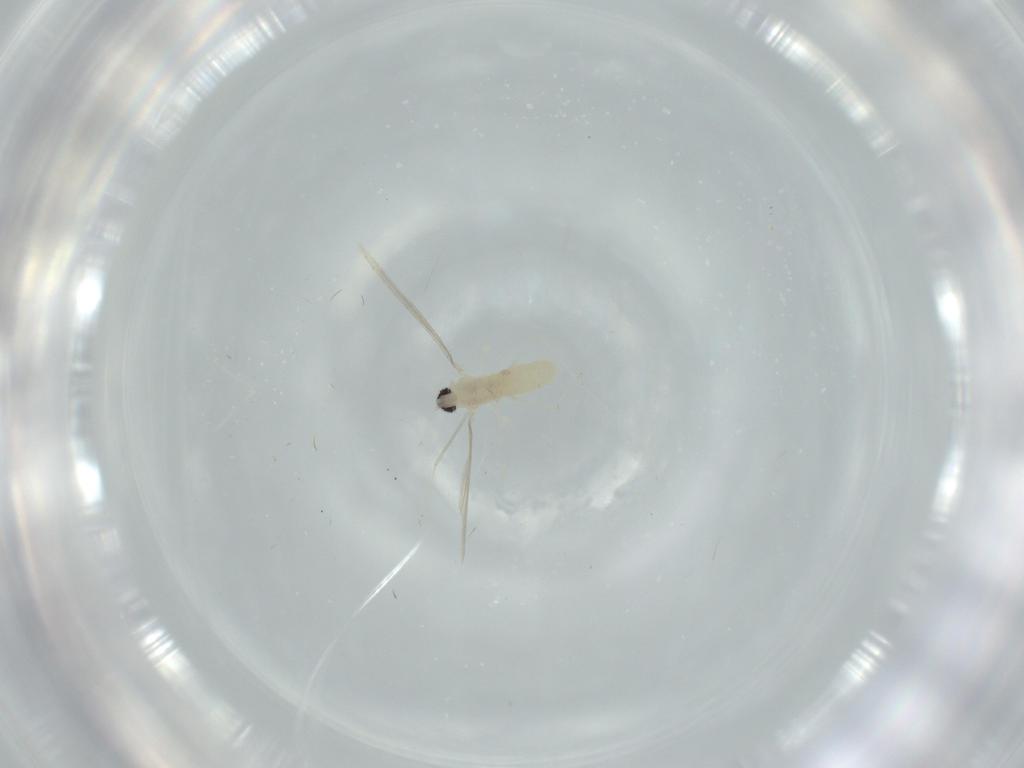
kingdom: Animalia
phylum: Arthropoda
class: Insecta
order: Diptera
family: Cecidomyiidae
